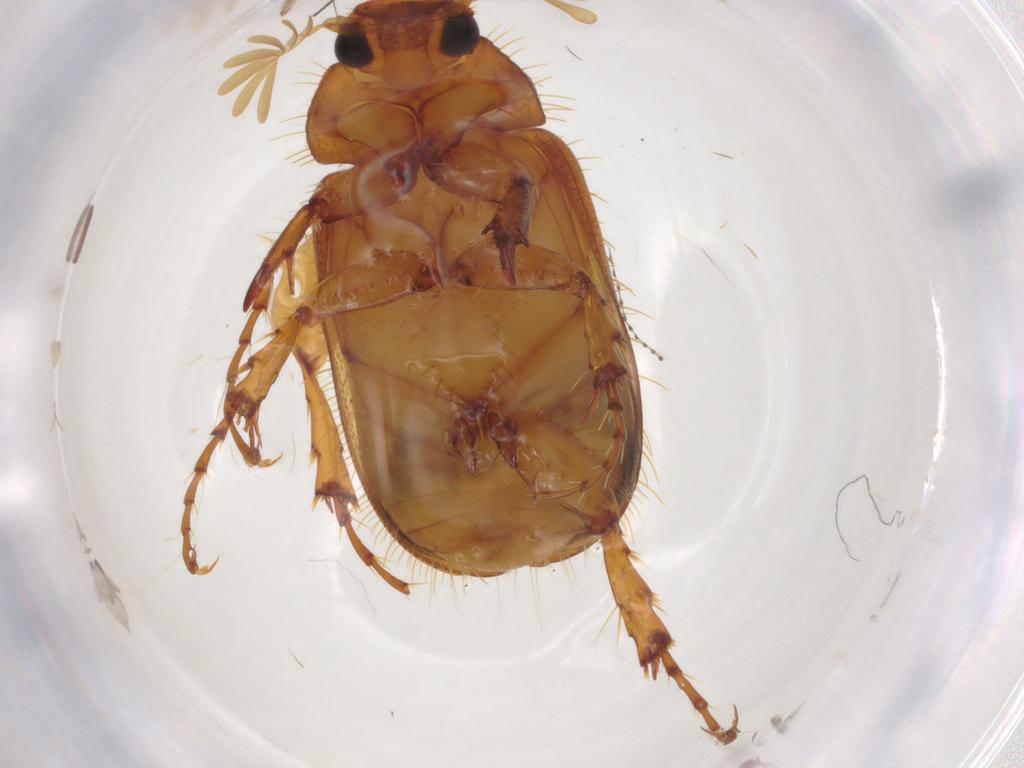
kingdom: Animalia
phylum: Arthropoda
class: Insecta
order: Coleoptera
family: Melolonthidae
